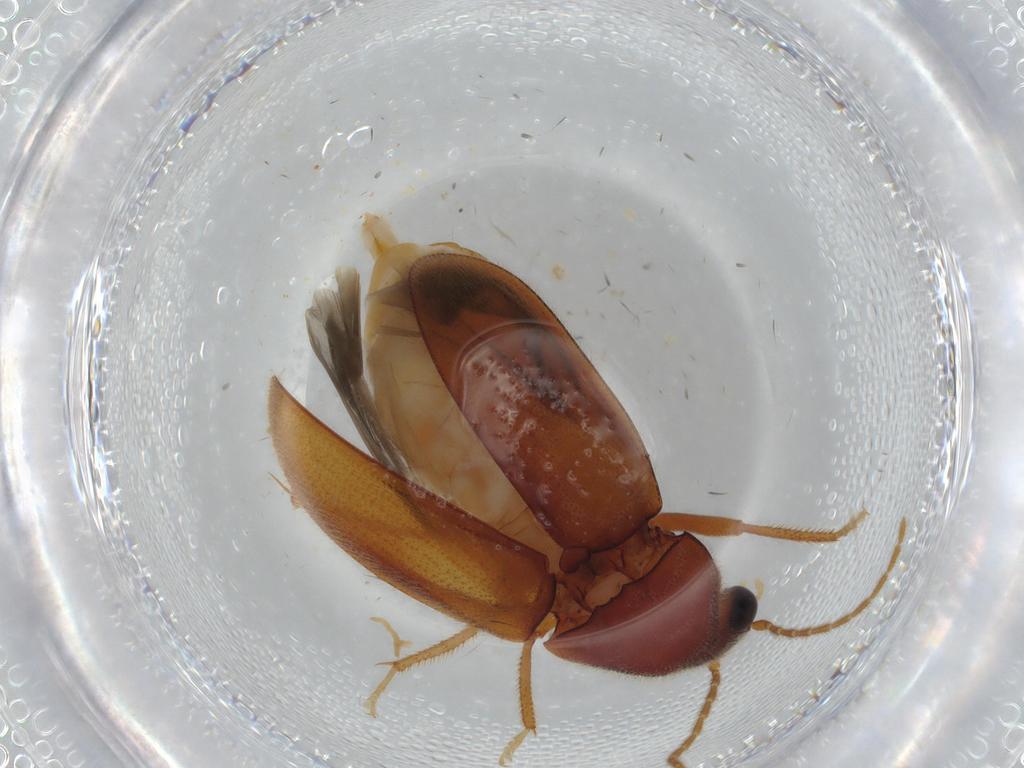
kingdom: Animalia
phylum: Arthropoda
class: Insecta
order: Coleoptera
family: Ptilodactylidae
